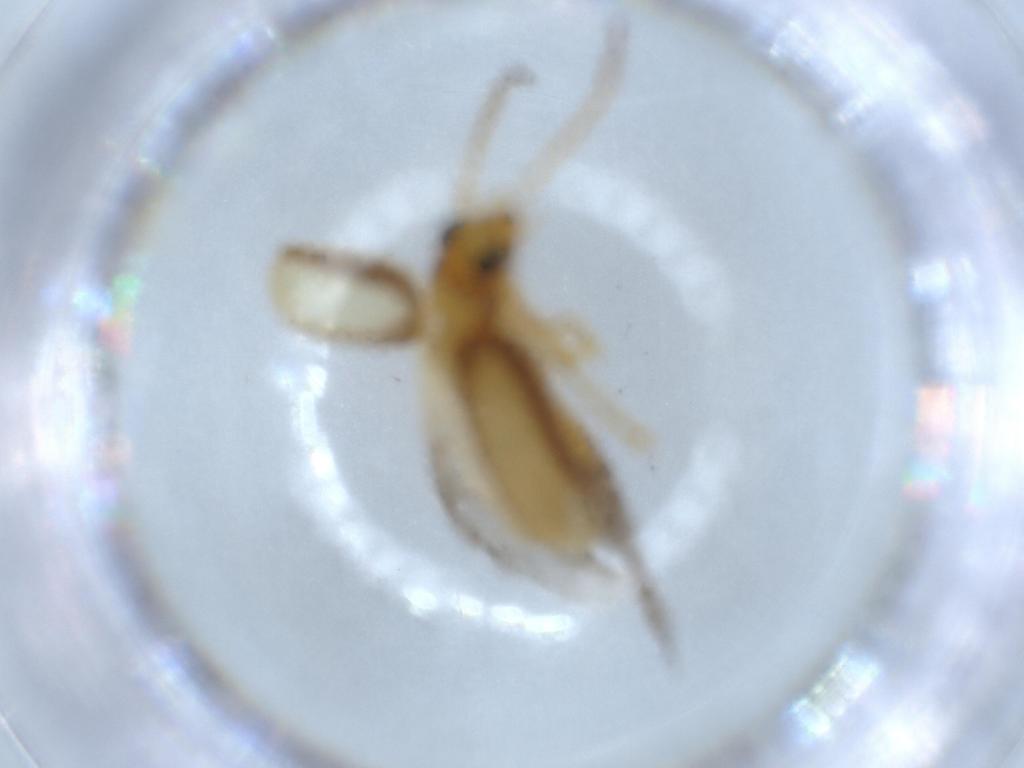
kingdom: Animalia
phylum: Arthropoda
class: Insecta
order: Coleoptera
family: Chrysomelidae
